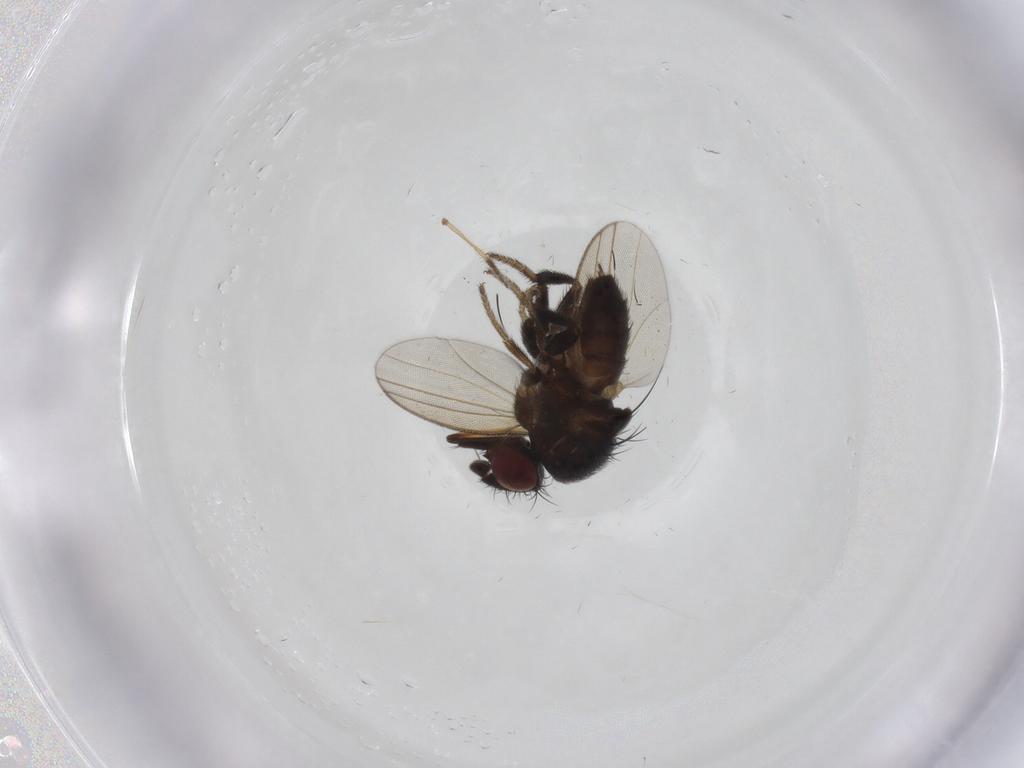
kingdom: Animalia
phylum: Arthropoda
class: Insecta
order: Diptera
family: Milichiidae
